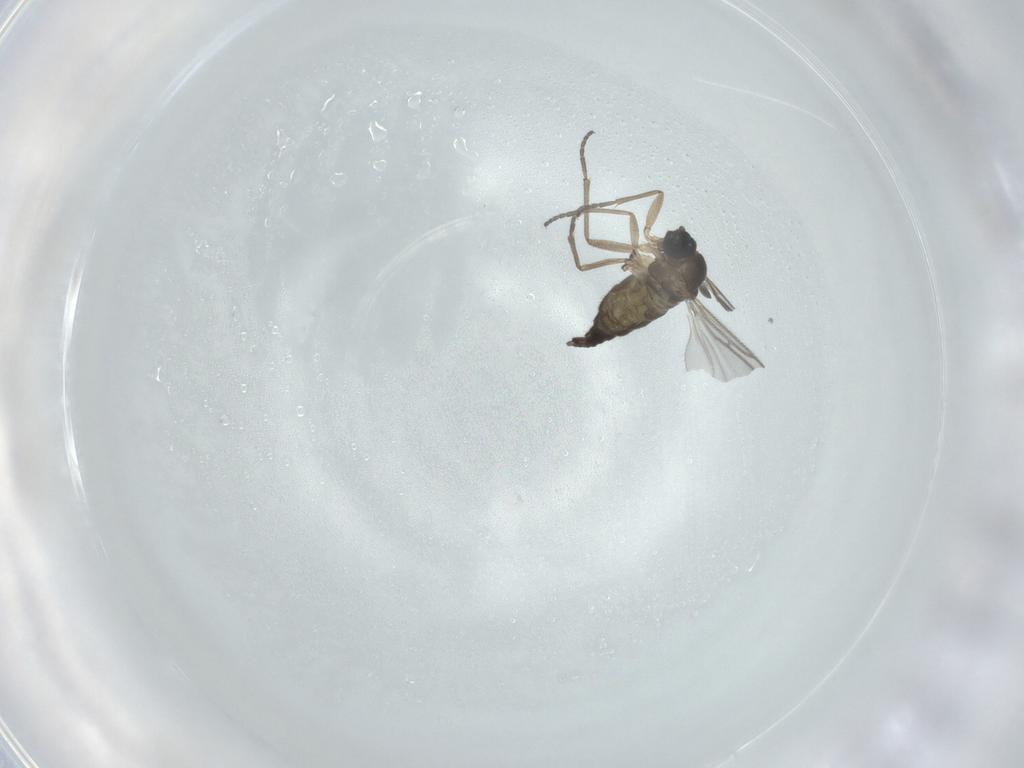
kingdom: Animalia
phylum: Arthropoda
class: Insecta
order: Diptera
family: Sciaridae
